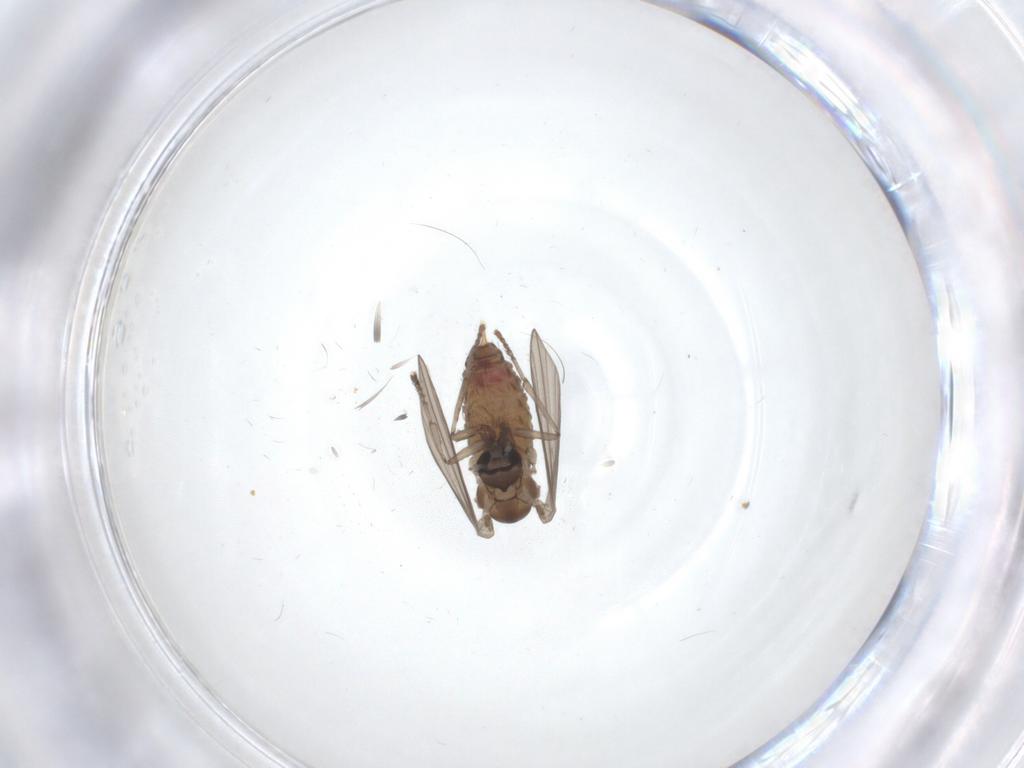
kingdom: Animalia
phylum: Arthropoda
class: Insecta
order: Diptera
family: Psychodidae
